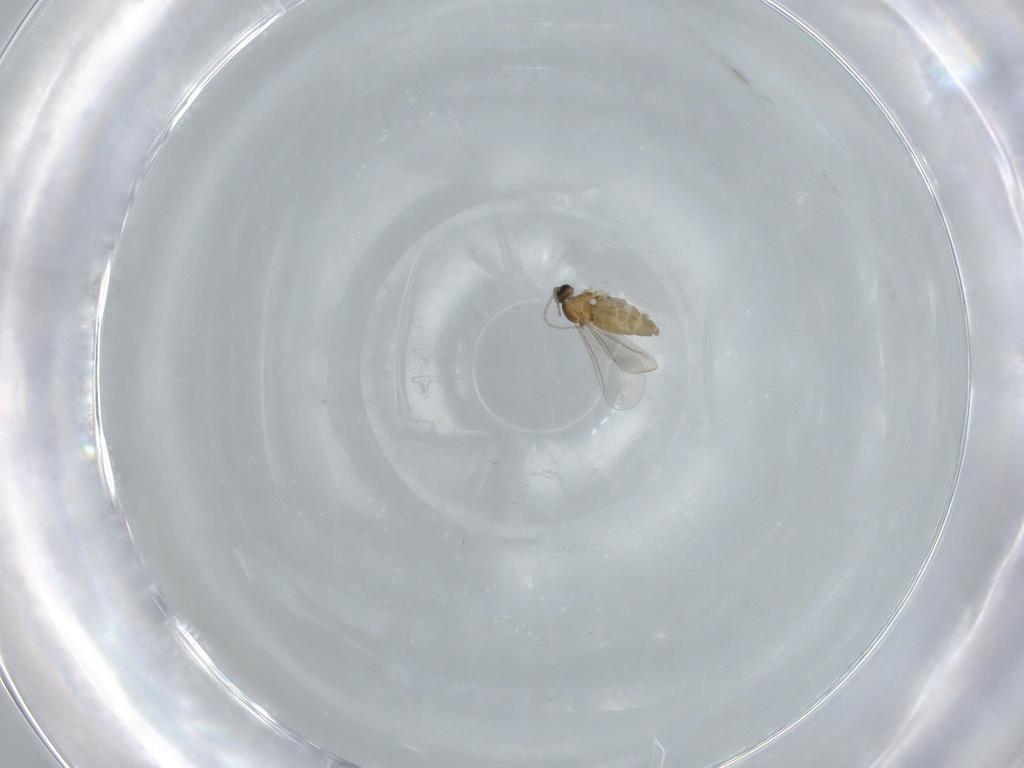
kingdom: Animalia
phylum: Arthropoda
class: Insecta
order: Diptera
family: Cecidomyiidae
